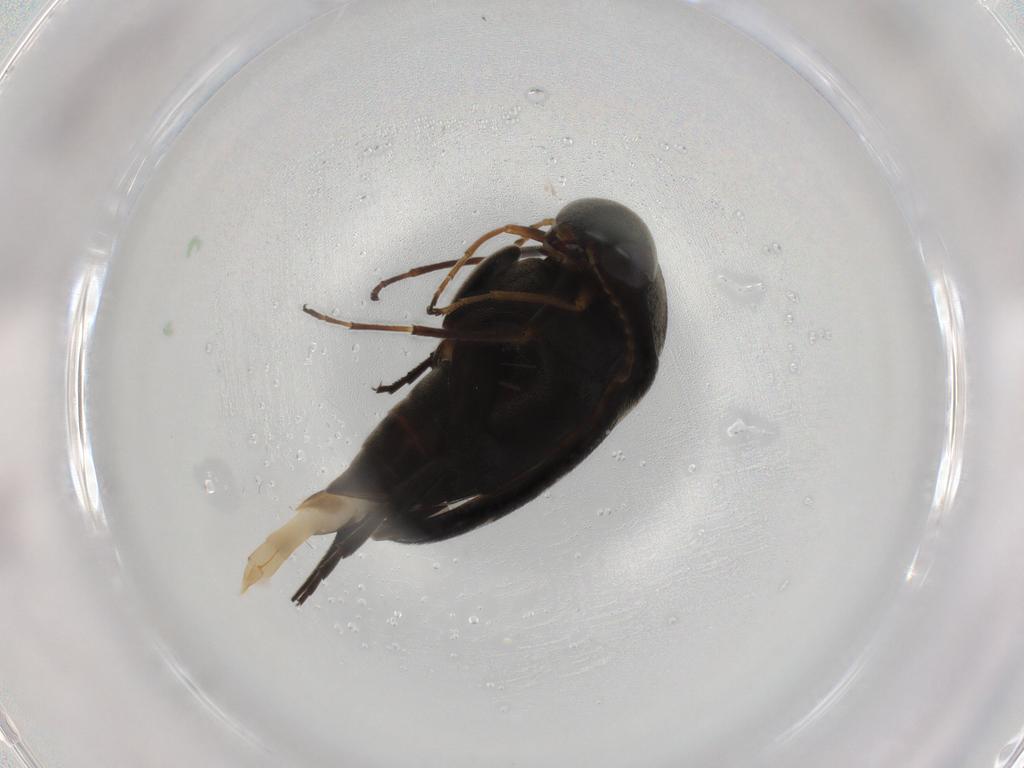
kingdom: Animalia
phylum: Arthropoda
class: Insecta
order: Coleoptera
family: Mordellidae
